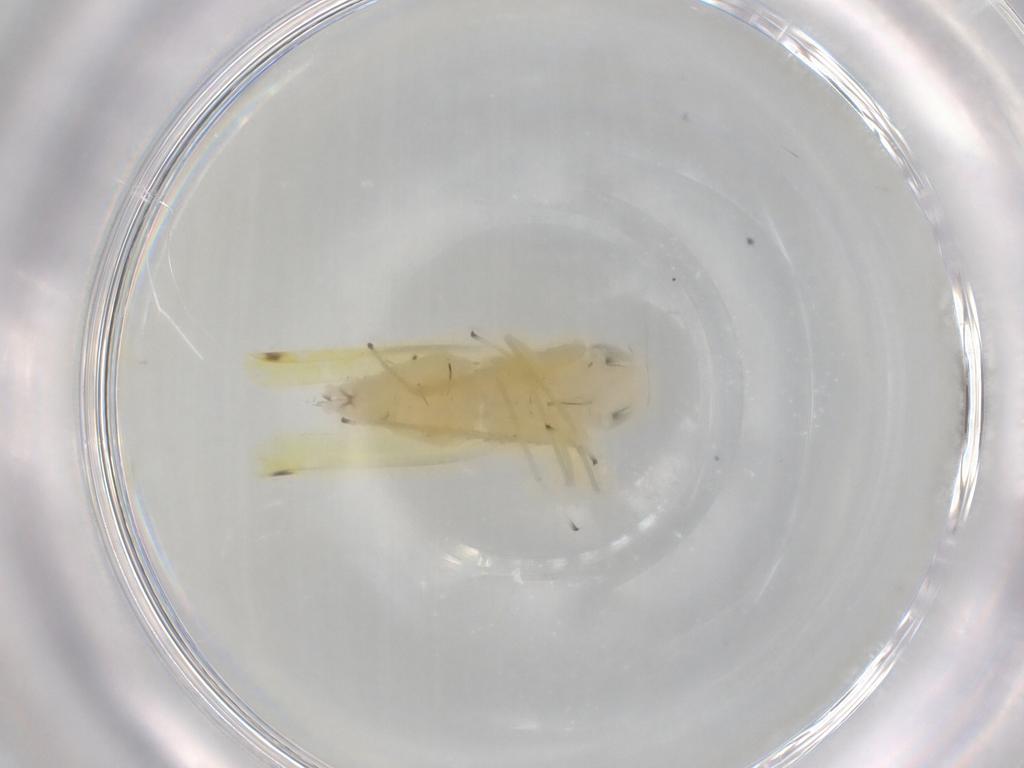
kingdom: Animalia
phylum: Arthropoda
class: Insecta
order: Hemiptera
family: Cicadellidae
